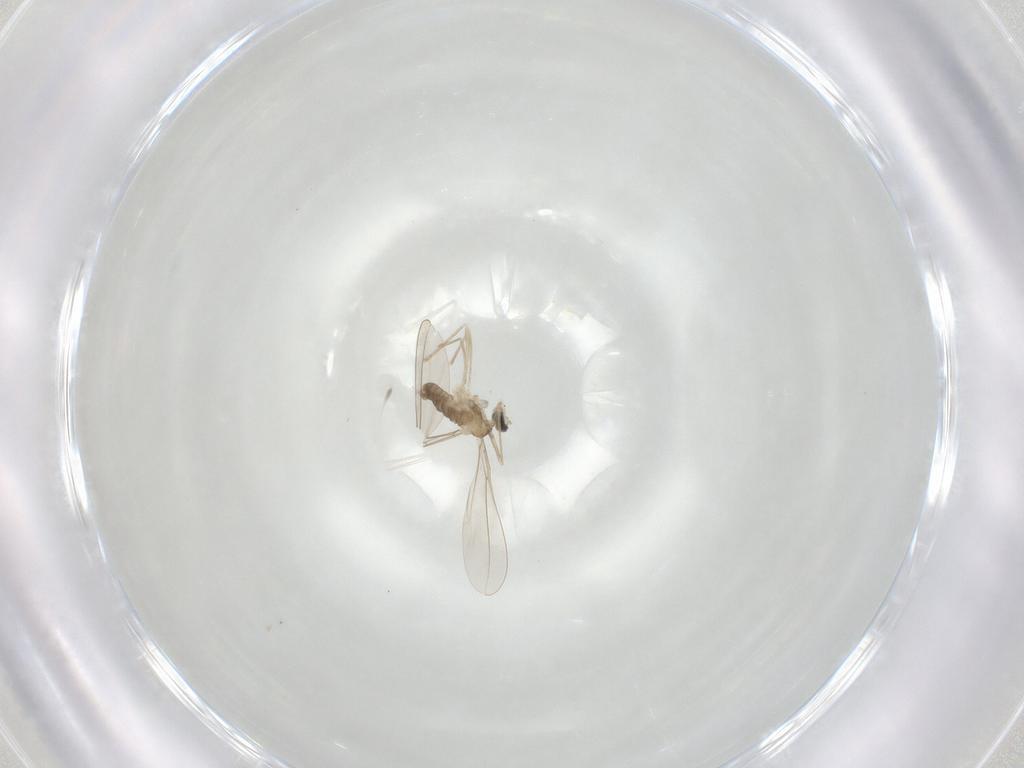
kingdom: Animalia
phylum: Arthropoda
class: Insecta
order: Diptera
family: Cecidomyiidae
